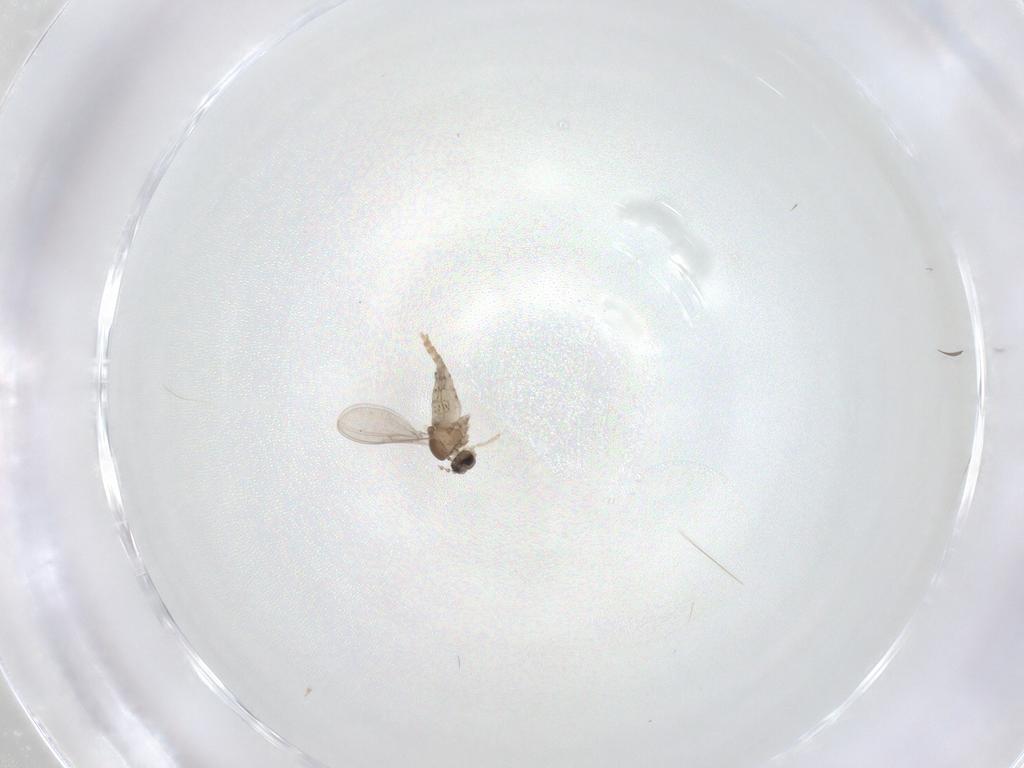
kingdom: Animalia
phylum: Arthropoda
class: Insecta
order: Diptera
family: Cecidomyiidae
